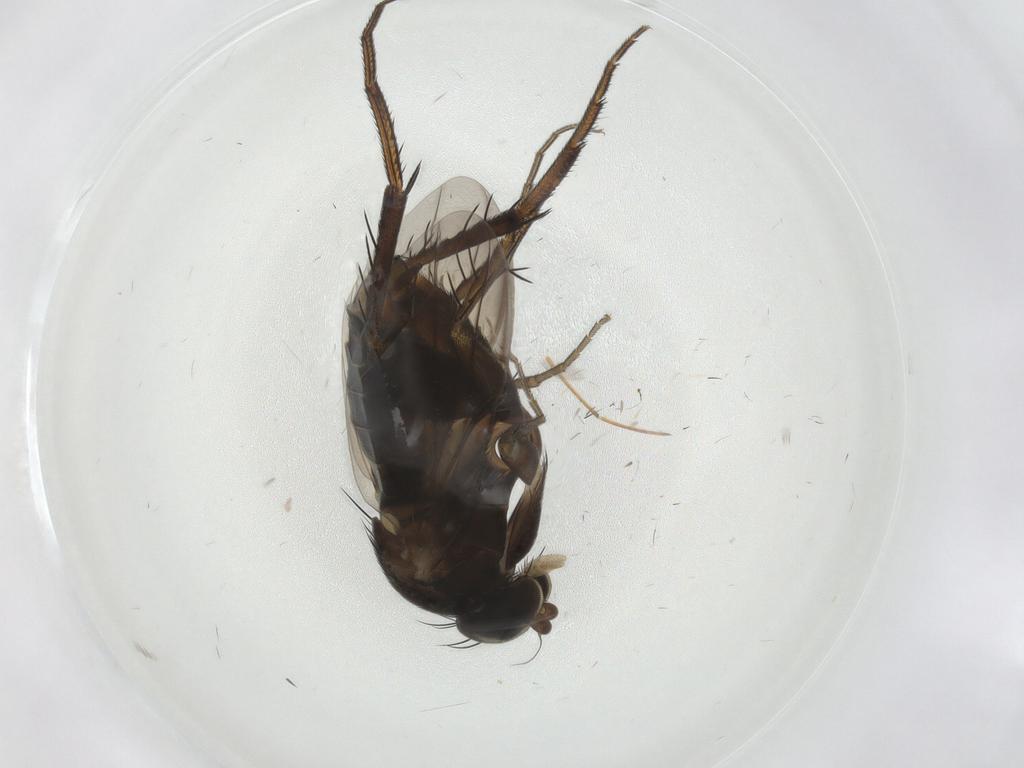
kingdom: Animalia
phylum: Arthropoda
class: Insecta
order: Diptera
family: Phoridae
